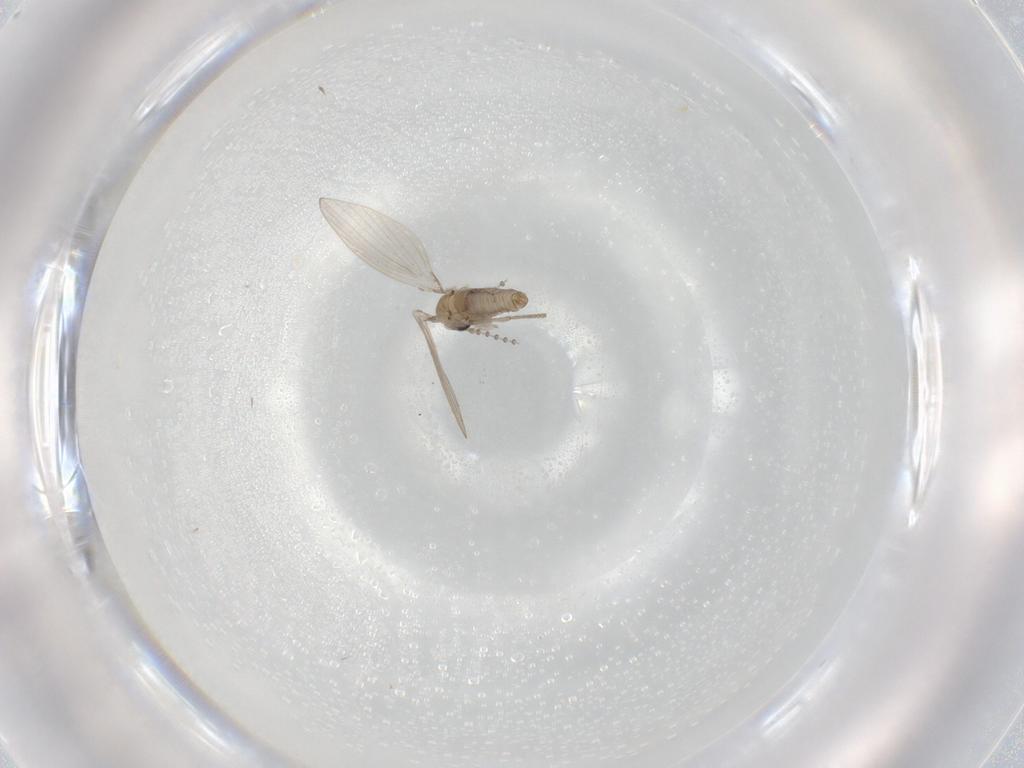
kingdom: Animalia
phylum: Arthropoda
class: Insecta
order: Diptera
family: Psychodidae
